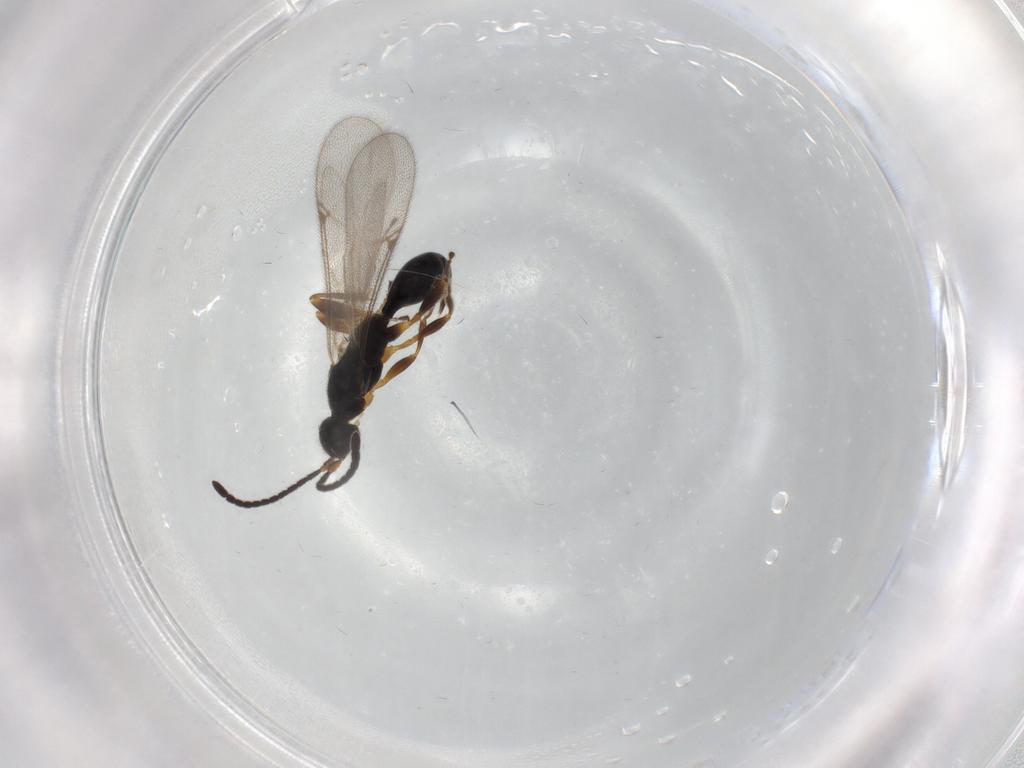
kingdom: Animalia
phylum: Arthropoda
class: Insecta
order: Hymenoptera
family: Proctotrupidae
